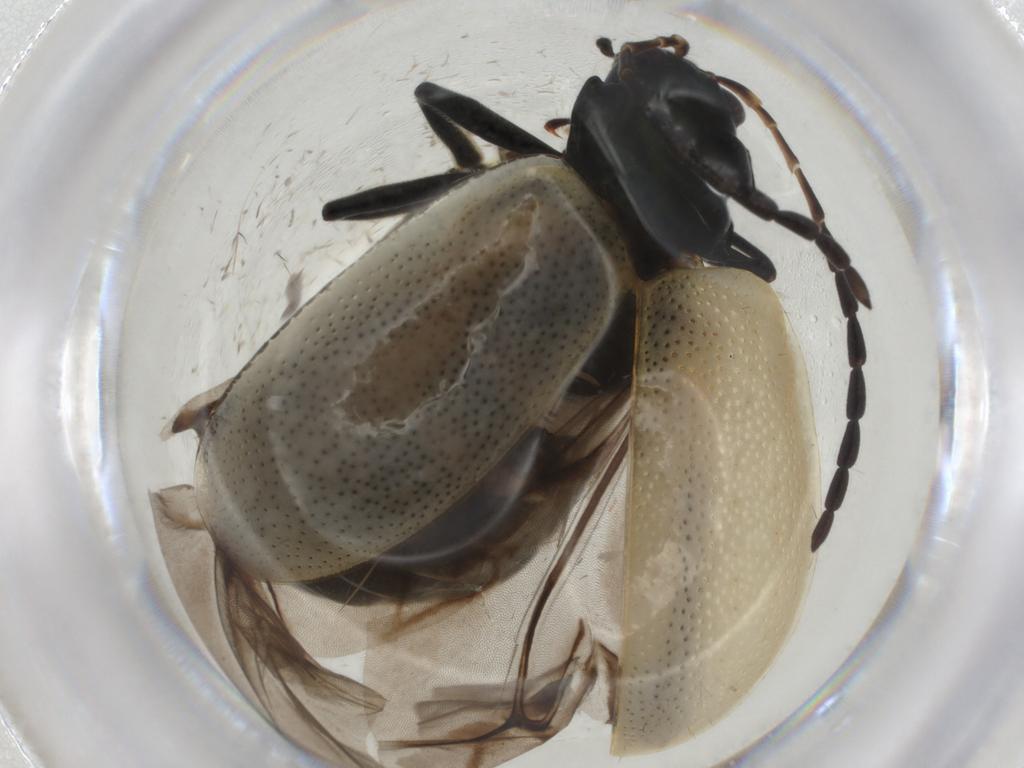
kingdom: Animalia
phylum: Arthropoda
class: Insecta
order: Coleoptera
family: Chrysomelidae
